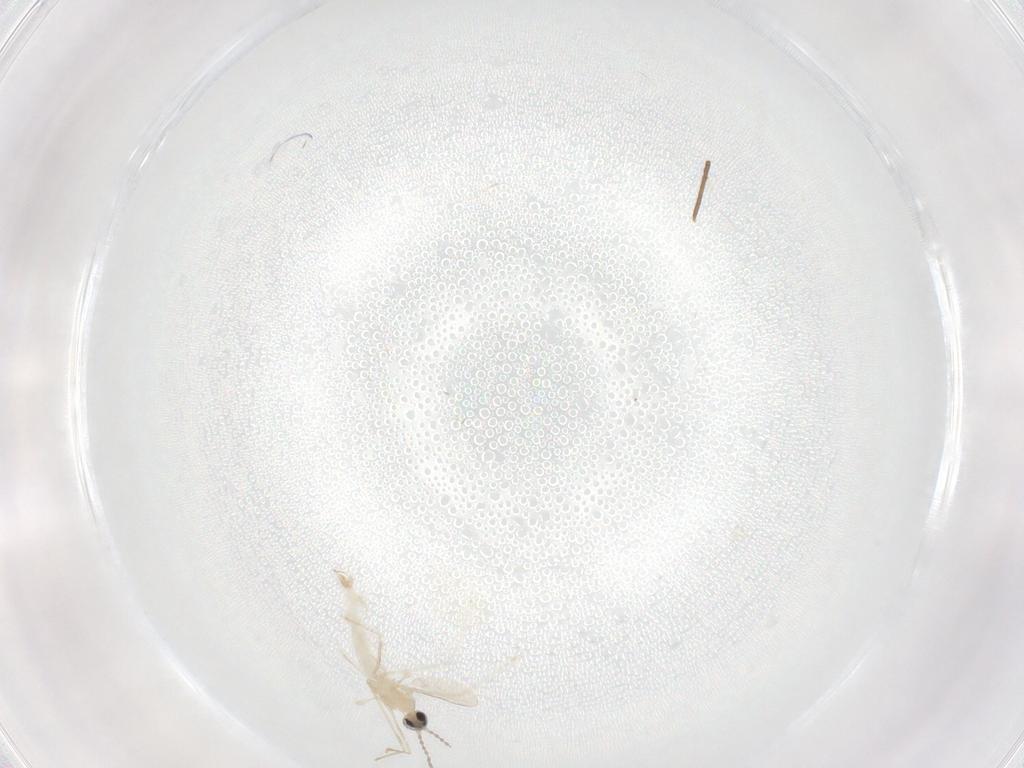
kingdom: Animalia
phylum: Arthropoda
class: Insecta
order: Diptera
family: Cecidomyiidae
